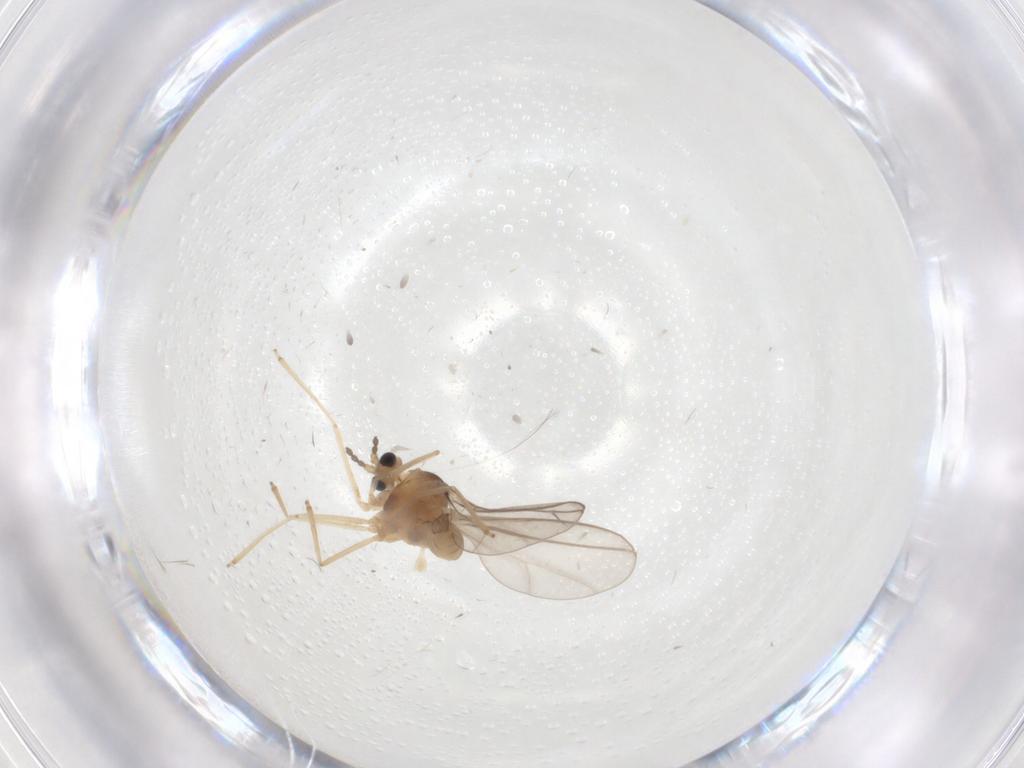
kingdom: Animalia
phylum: Arthropoda
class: Insecta
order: Diptera
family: Cecidomyiidae
